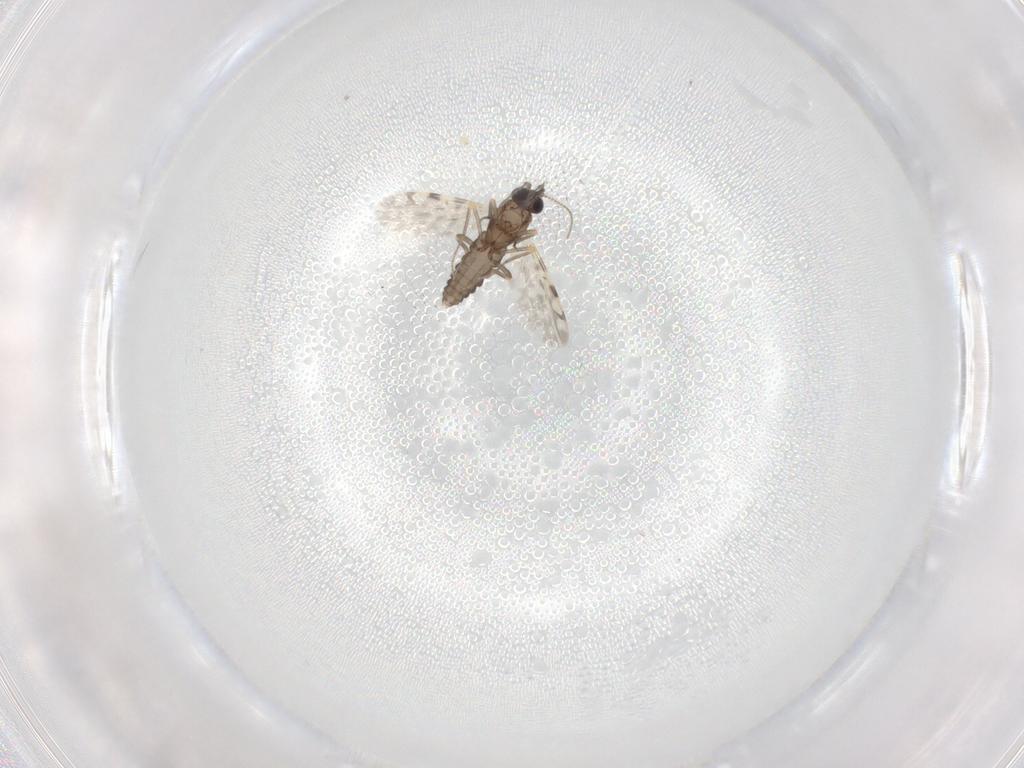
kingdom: Animalia
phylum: Arthropoda
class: Insecta
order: Diptera
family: Ceratopogonidae
